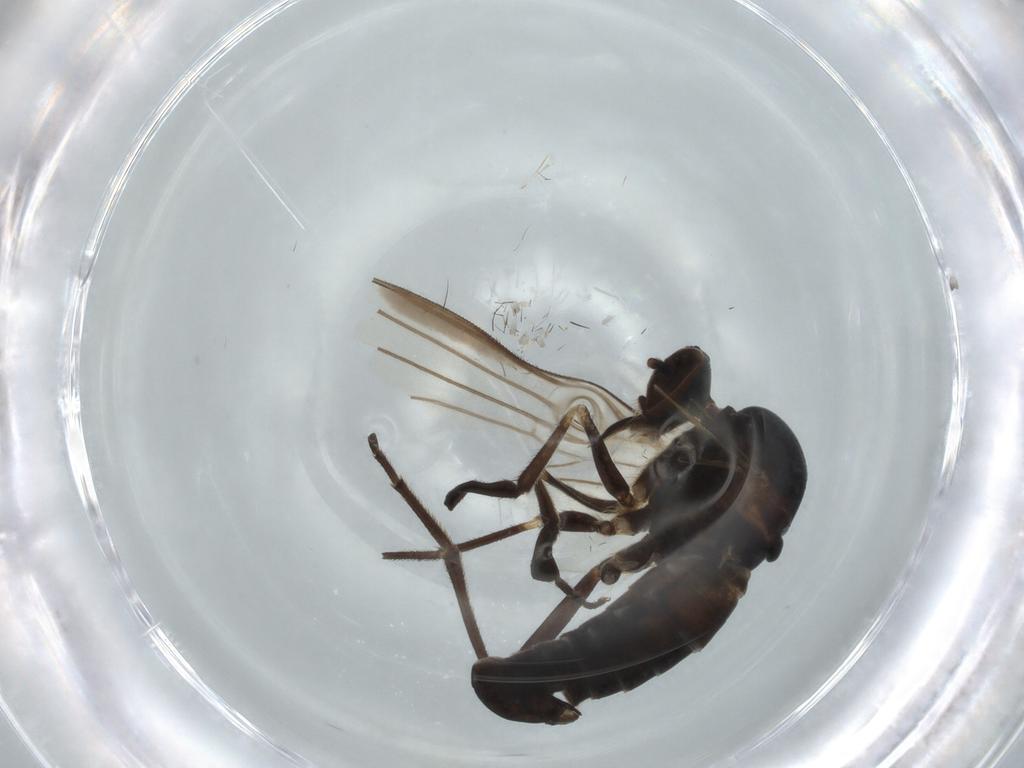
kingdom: Animalia
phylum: Arthropoda
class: Insecta
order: Diptera
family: Empididae
